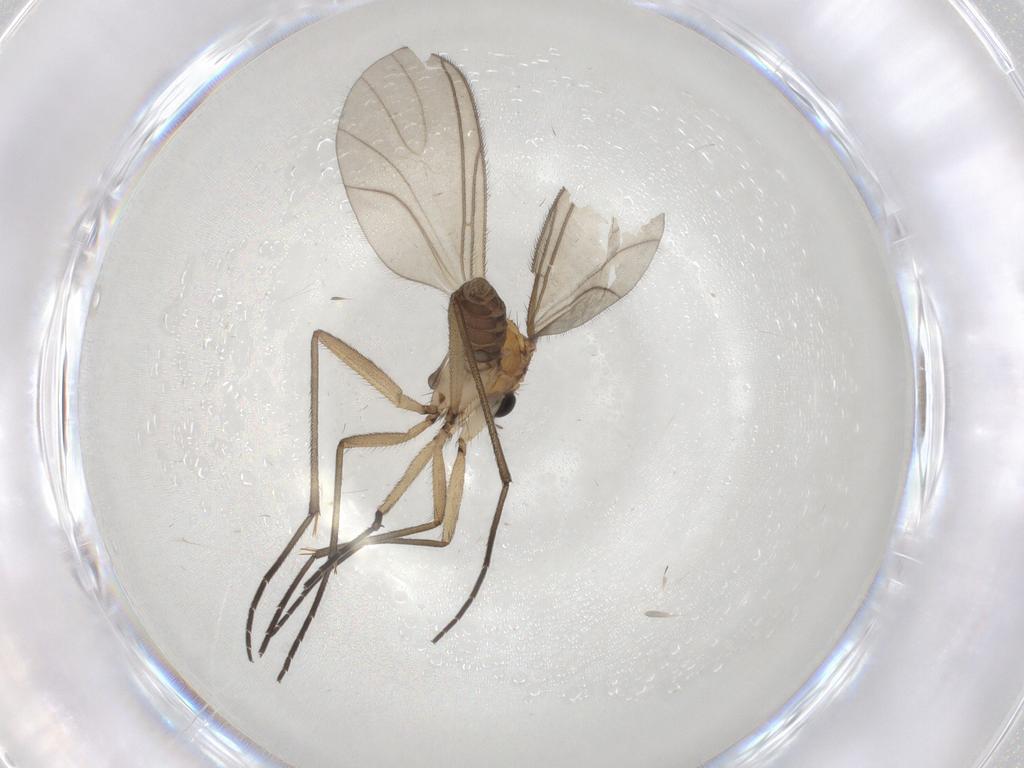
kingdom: Animalia
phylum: Arthropoda
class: Insecta
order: Diptera
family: Sciaridae
